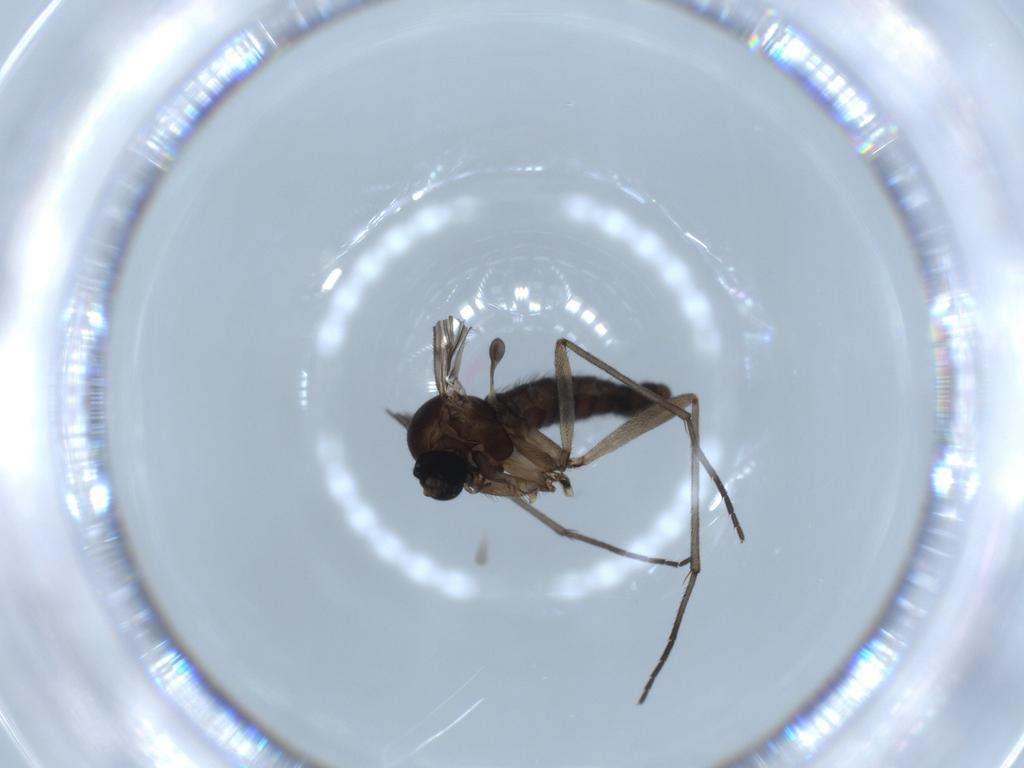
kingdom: Animalia
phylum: Arthropoda
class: Insecta
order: Diptera
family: Sciaridae
